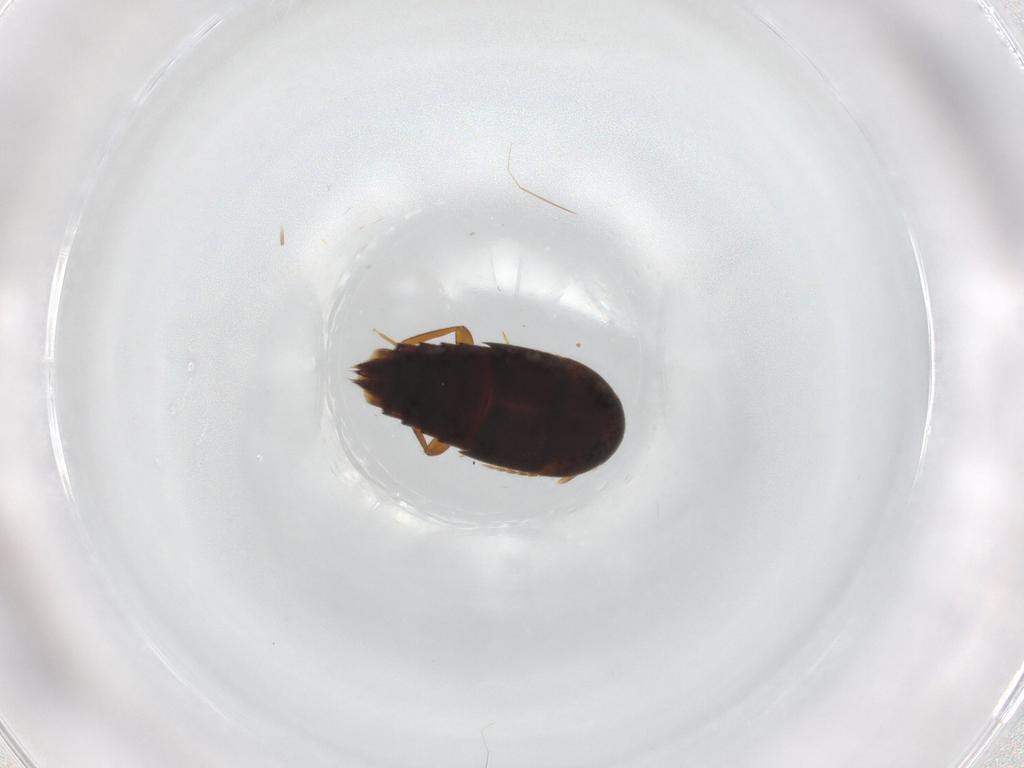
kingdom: Animalia
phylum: Arthropoda
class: Insecta
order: Coleoptera
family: Staphylinidae
